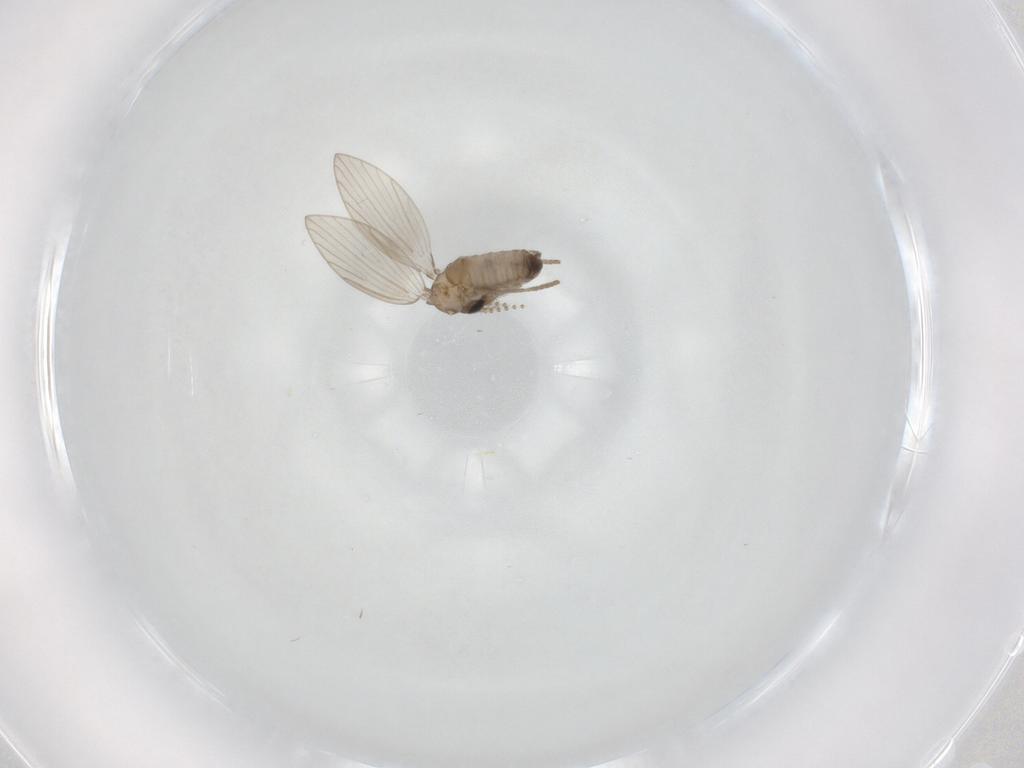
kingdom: Animalia
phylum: Arthropoda
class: Insecta
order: Diptera
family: Psychodidae
